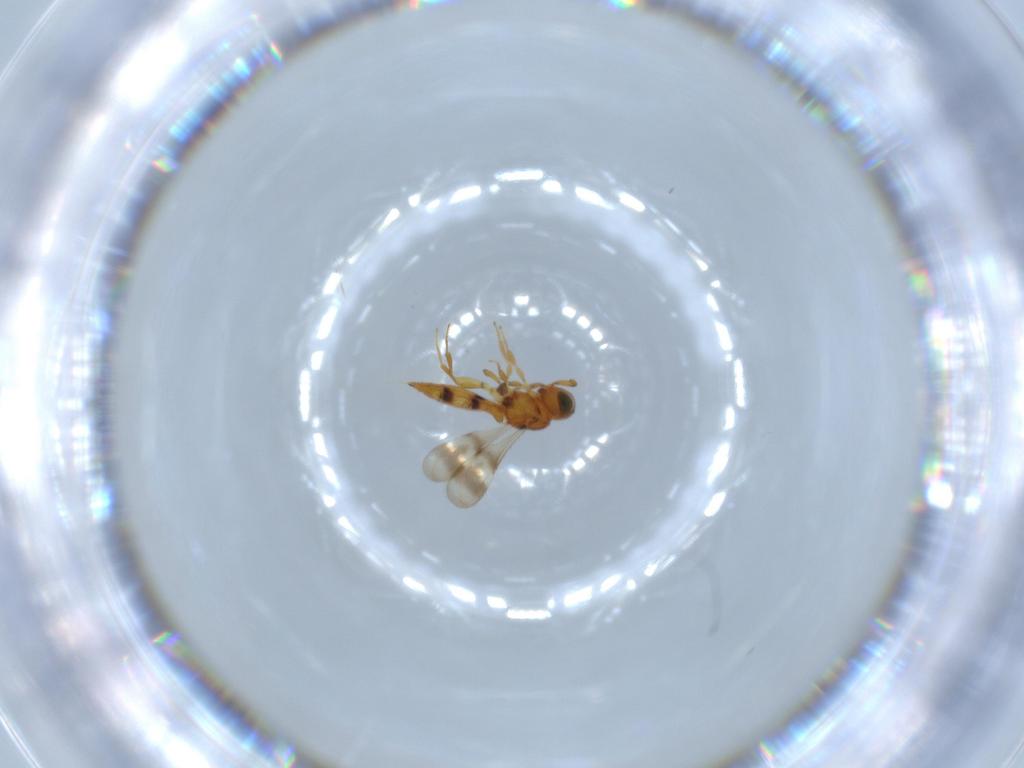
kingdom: Animalia
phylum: Arthropoda
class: Insecta
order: Hymenoptera
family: Scelionidae
